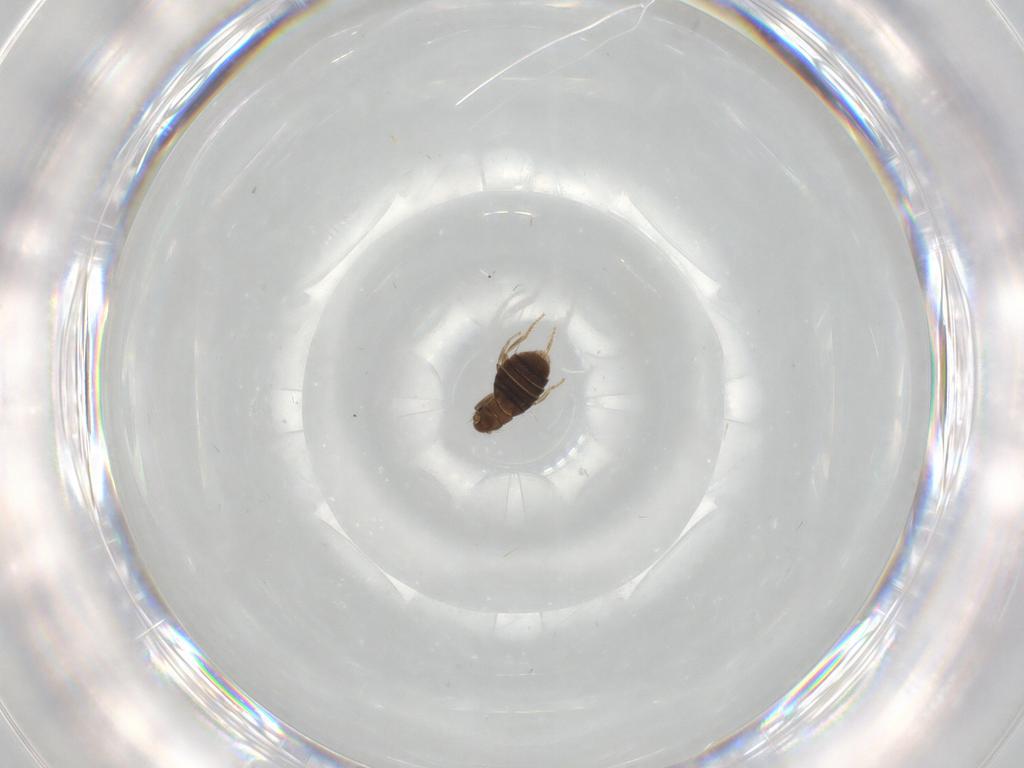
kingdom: Animalia
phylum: Arthropoda
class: Insecta
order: Diptera
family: Phoridae
